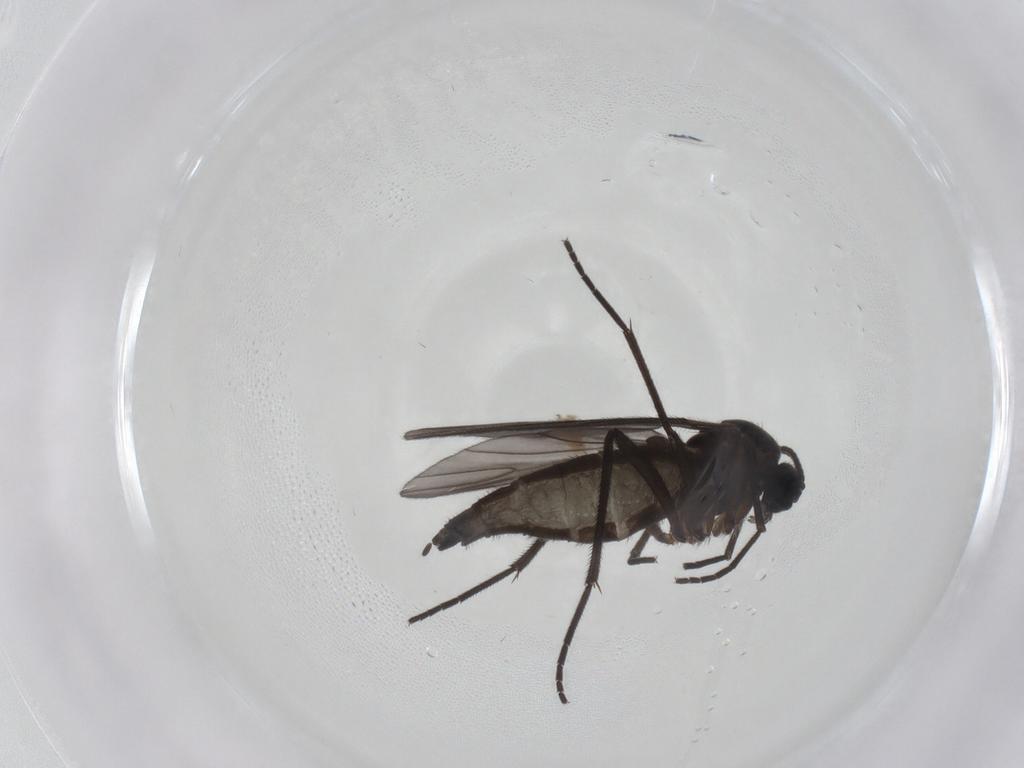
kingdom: Animalia
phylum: Arthropoda
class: Insecta
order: Diptera
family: Sciaridae
